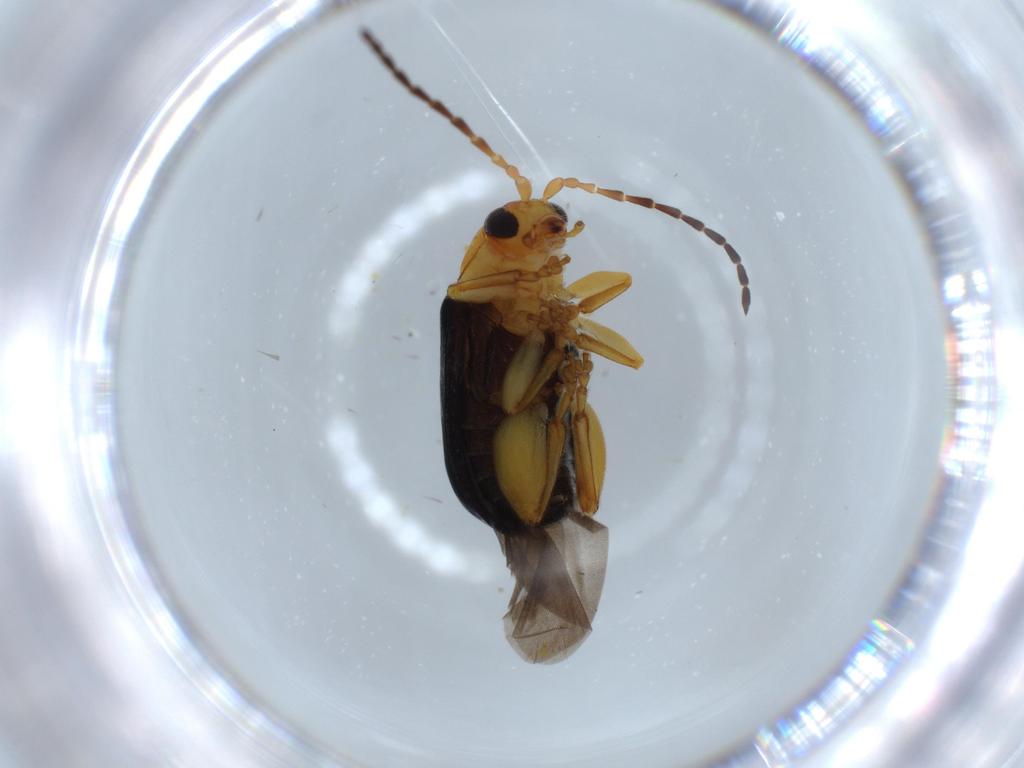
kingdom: Animalia
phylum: Arthropoda
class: Insecta
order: Coleoptera
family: Chrysomelidae
